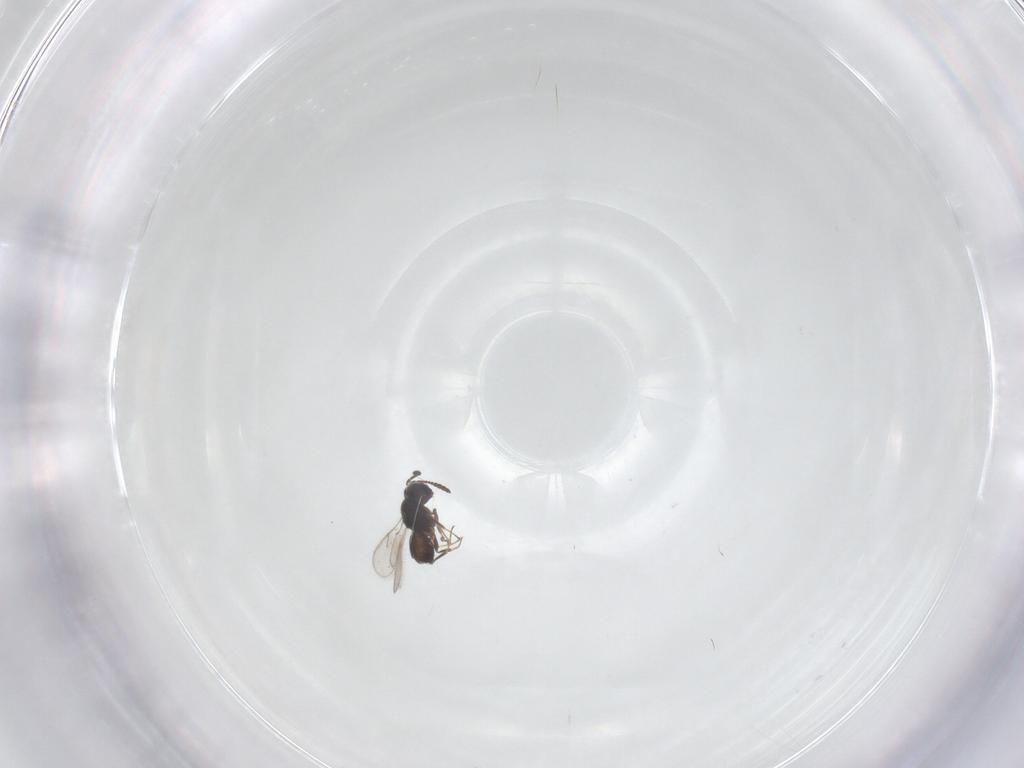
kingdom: Animalia
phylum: Arthropoda
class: Insecta
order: Hymenoptera
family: Scelionidae
